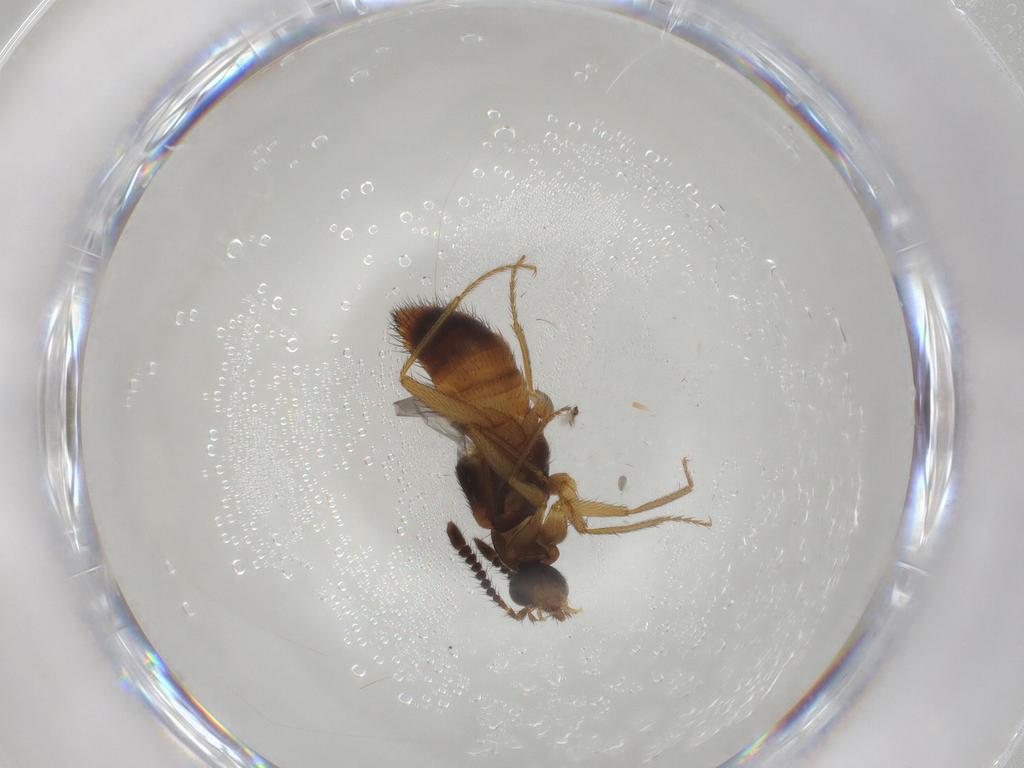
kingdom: Animalia
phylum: Arthropoda
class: Insecta
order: Coleoptera
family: Staphylinidae
